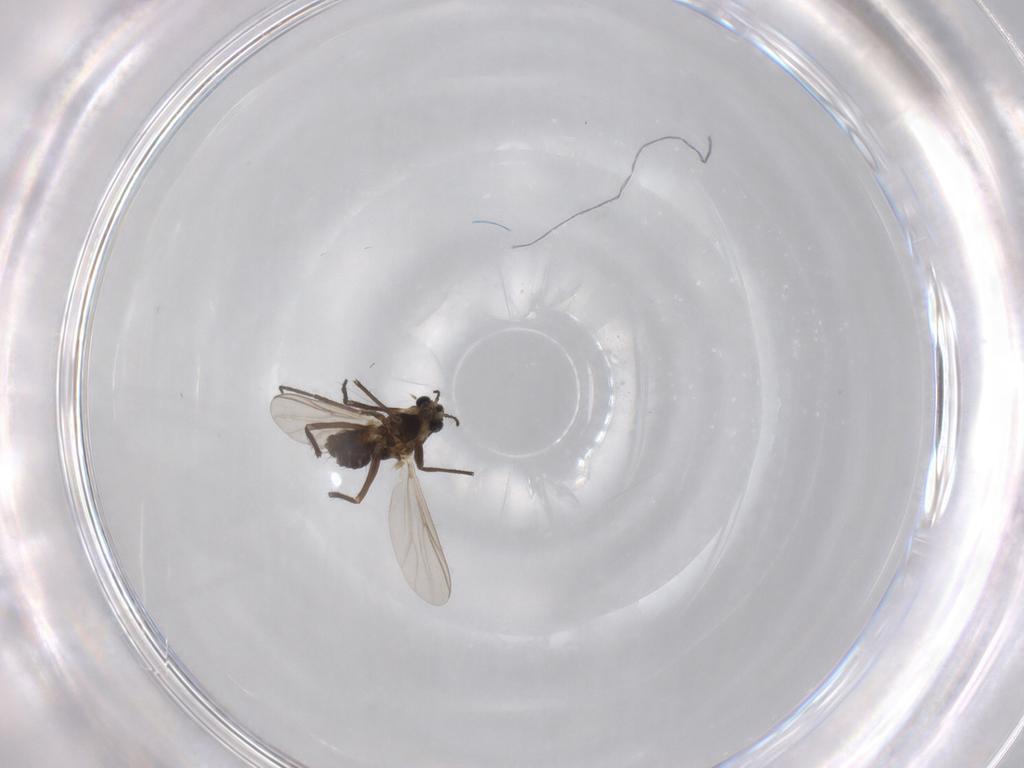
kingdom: Animalia
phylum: Arthropoda
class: Insecta
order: Diptera
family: Chironomidae
